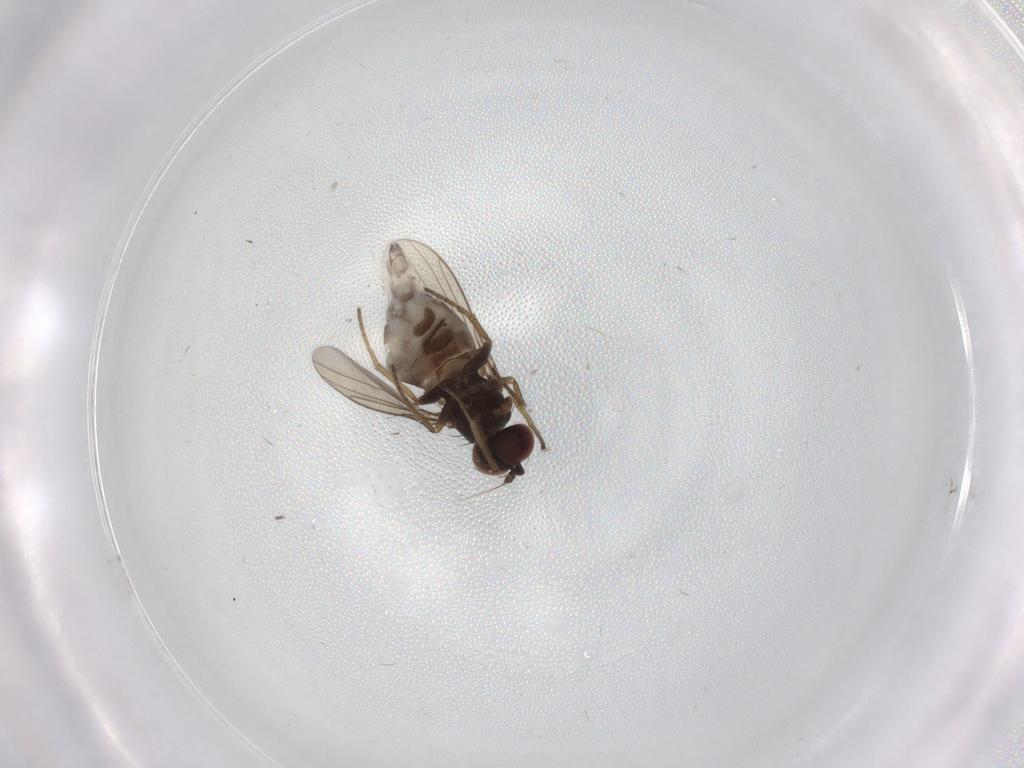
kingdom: Animalia
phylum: Arthropoda
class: Insecta
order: Diptera
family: Dolichopodidae
